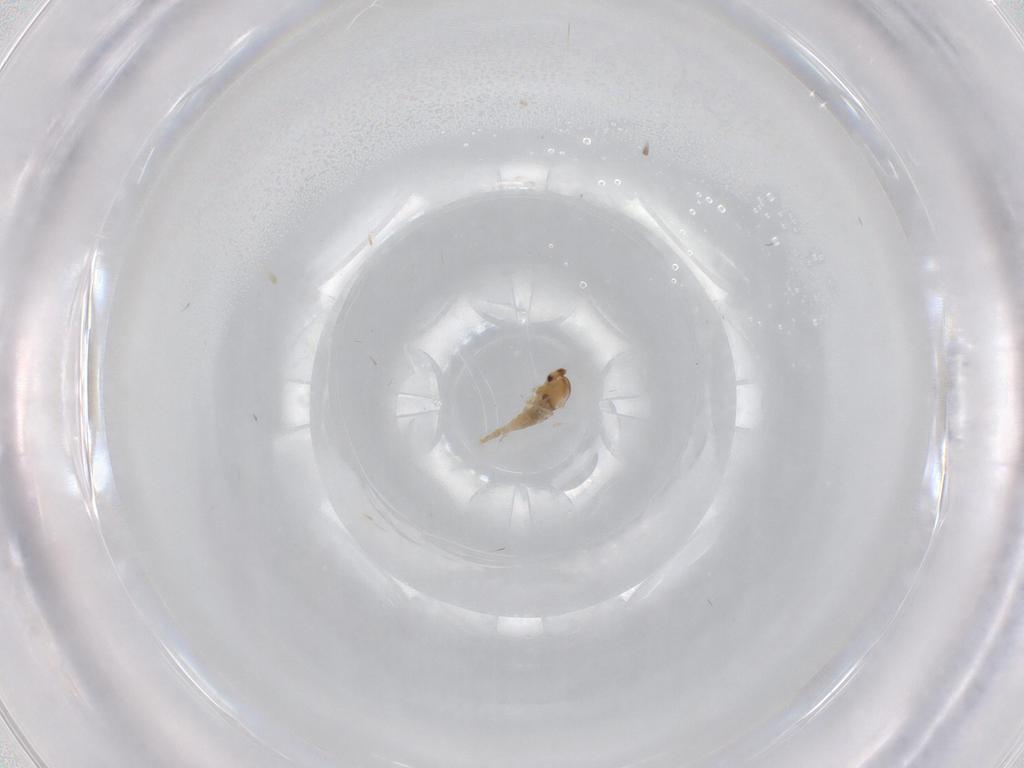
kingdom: Animalia
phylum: Arthropoda
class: Insecta
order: Diptera
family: Cecidomyiidae
